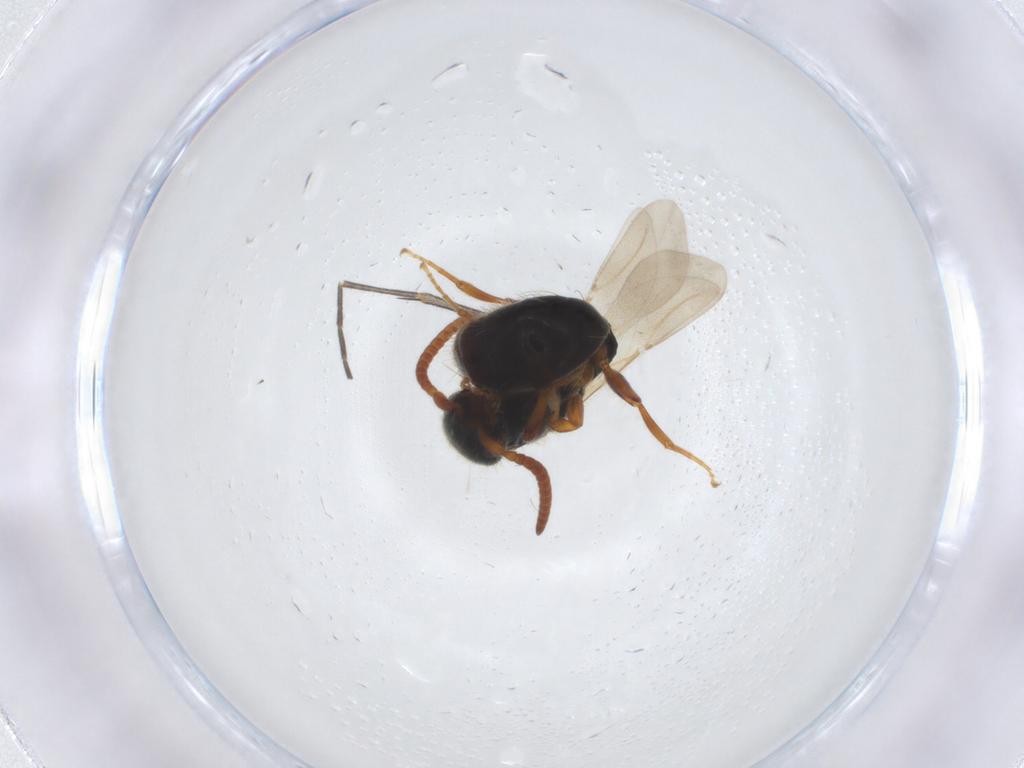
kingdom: Animalia
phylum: Arthropoda
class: Insecta
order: Hymenoptera
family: Bethylidae
